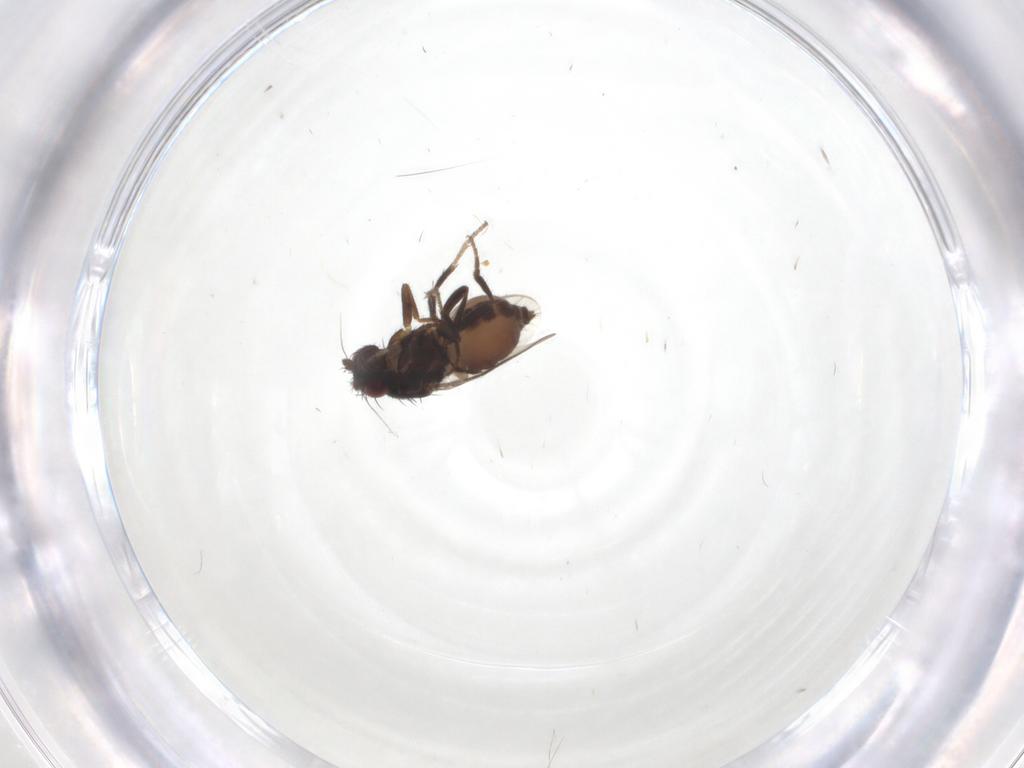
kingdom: Animalia
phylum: Arthropoda
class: Insecta
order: Diptera
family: Sphaeroceridae
